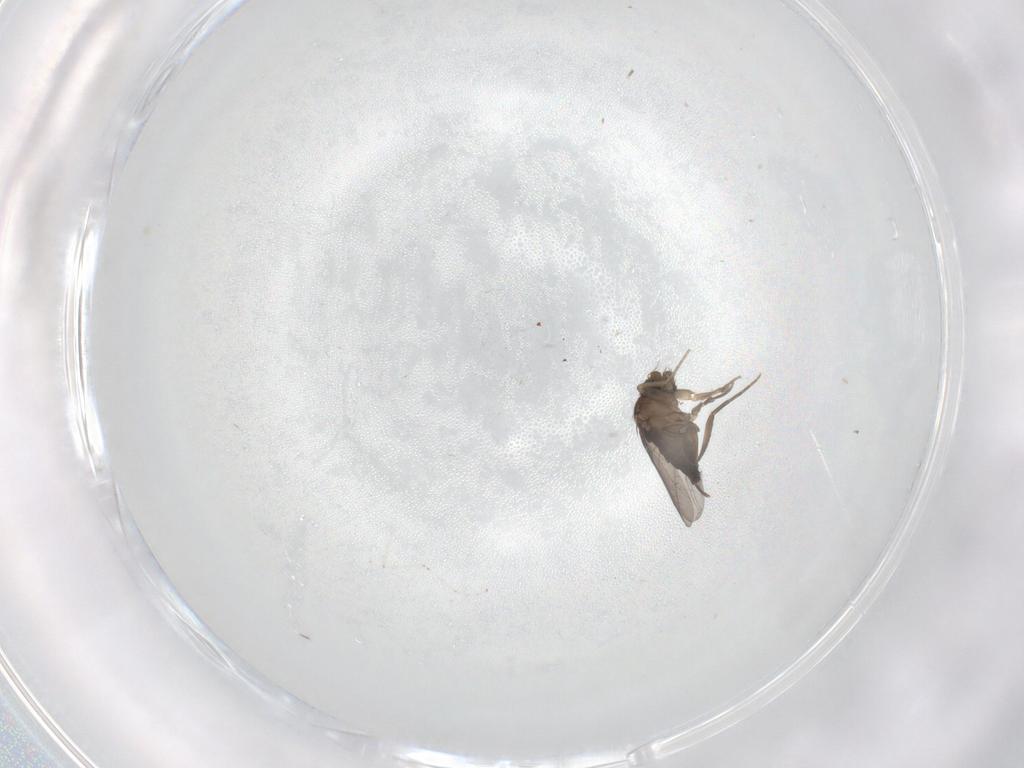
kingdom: Animalia
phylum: Arthropoda
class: Insecta
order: Diptera
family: Phoridae
